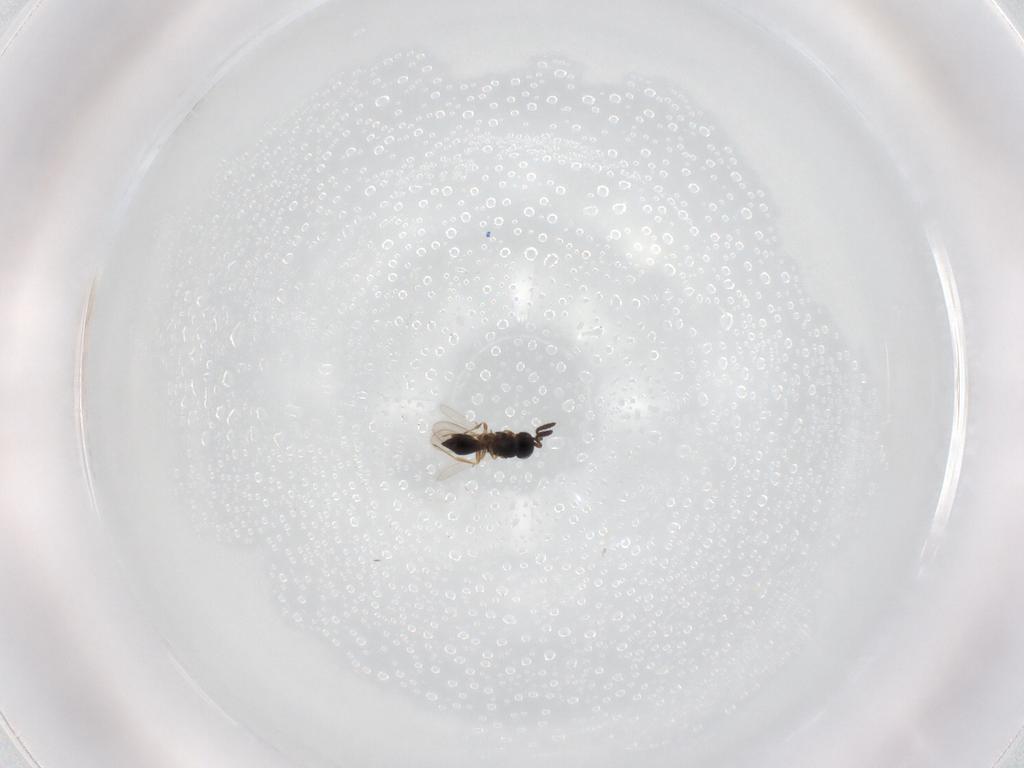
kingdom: Animalia
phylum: Arthropoda
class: Insecta
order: Hymenoptera
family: Scelionidae
